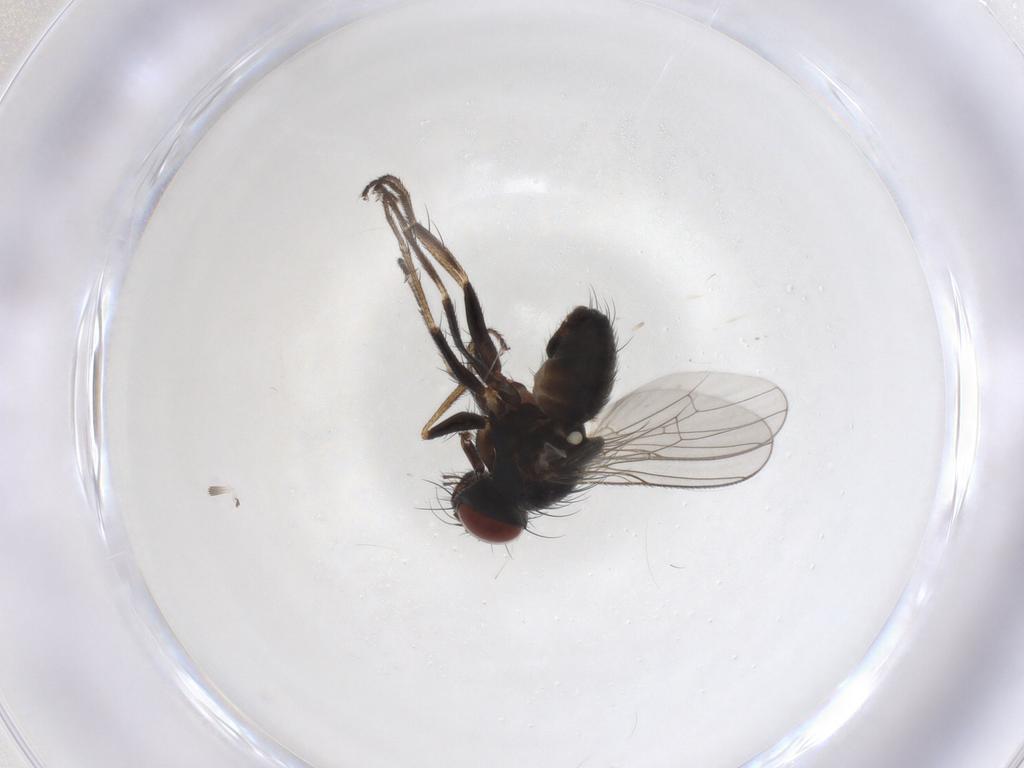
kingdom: Animalia
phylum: Arthropoda
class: Insecta
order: Diptera
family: Muscidae
